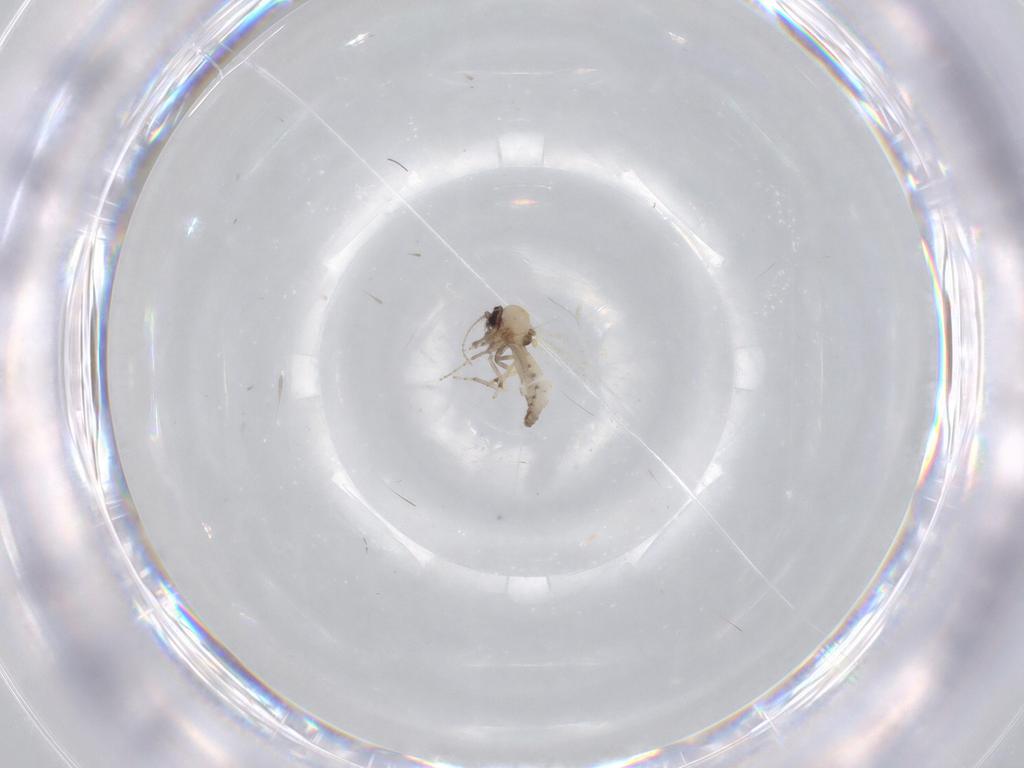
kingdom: Animalia
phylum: Arthropoda
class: Insecta
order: Diptera
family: Ceratopogonidae
